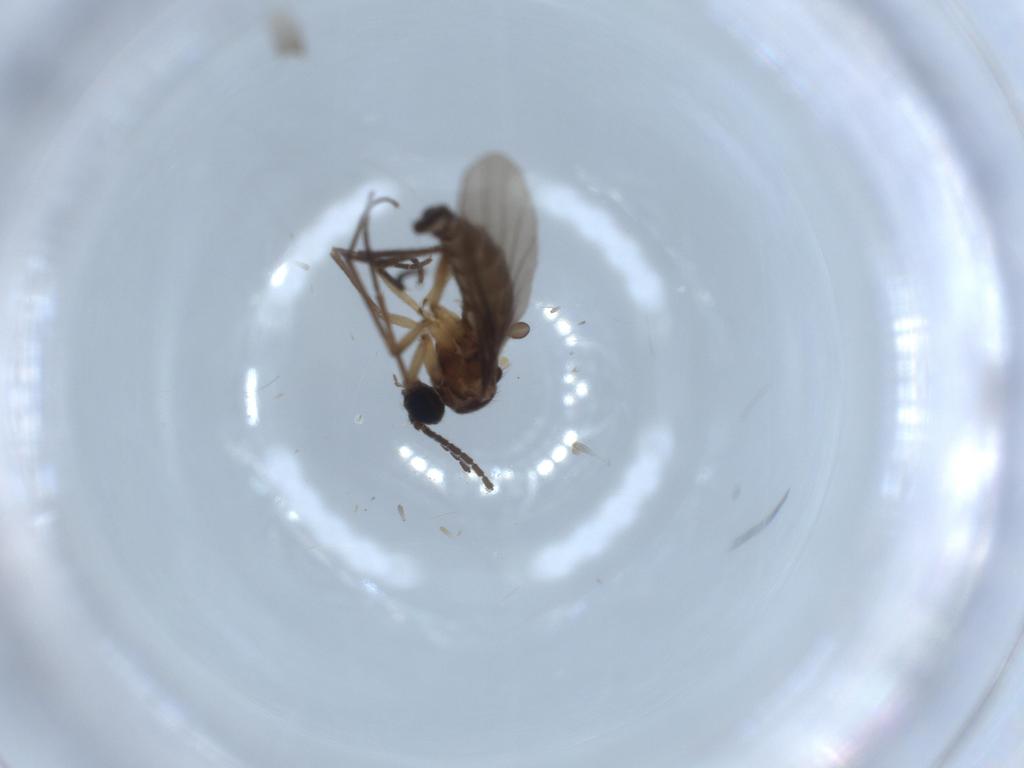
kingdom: Animalia
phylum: Arthropoda
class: Insecta
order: Diptera
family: Sciaridae
